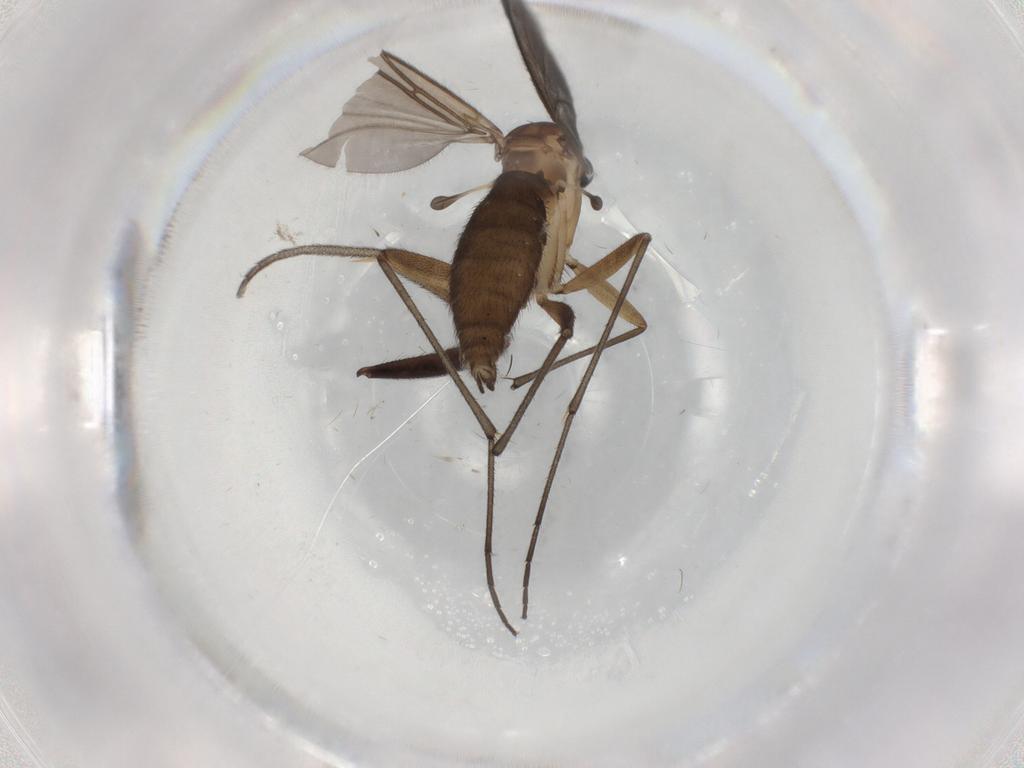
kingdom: Animalia
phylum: Arthropoda
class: Insecta
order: Diptera
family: Sciaridae
